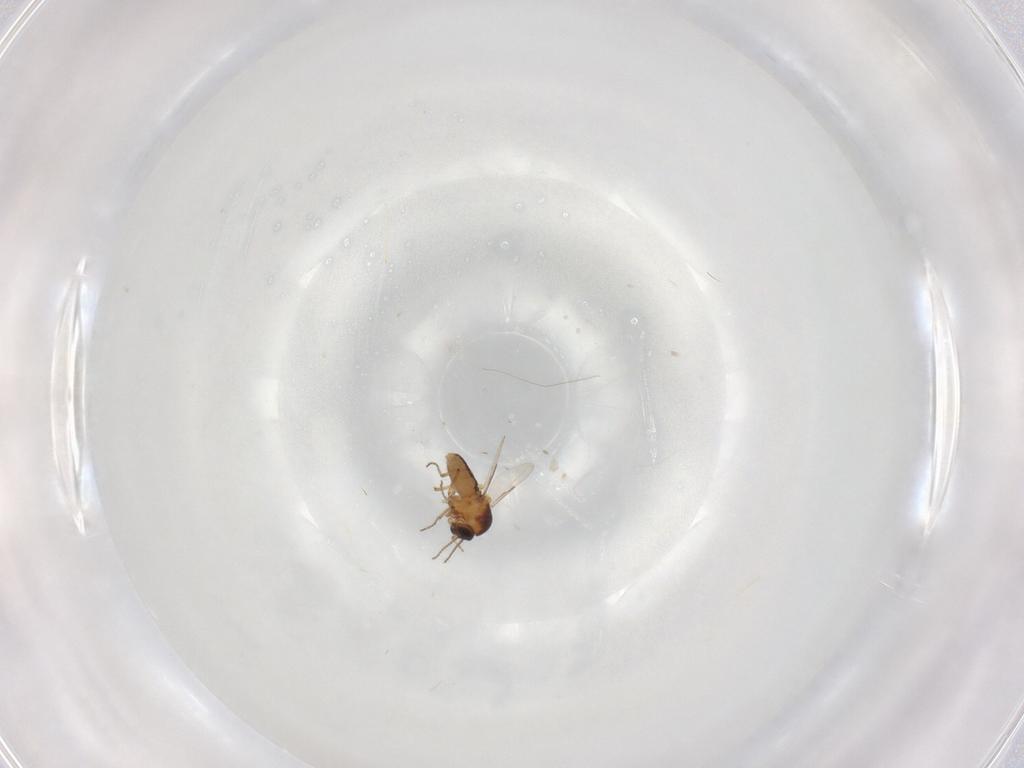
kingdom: Animalia
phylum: Arthropoda
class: Insecta
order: Diptera
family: Ceratopogonidae
